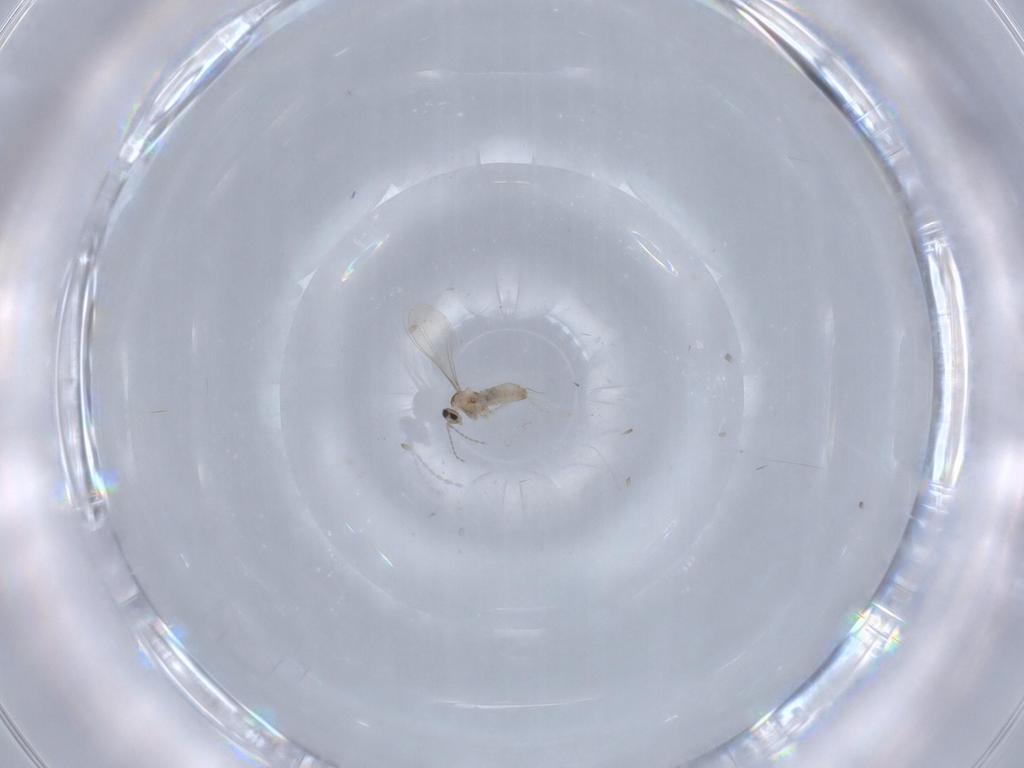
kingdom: Animalia
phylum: Arthropoda
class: Insecta
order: Diptera
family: Cecidomyiidae
